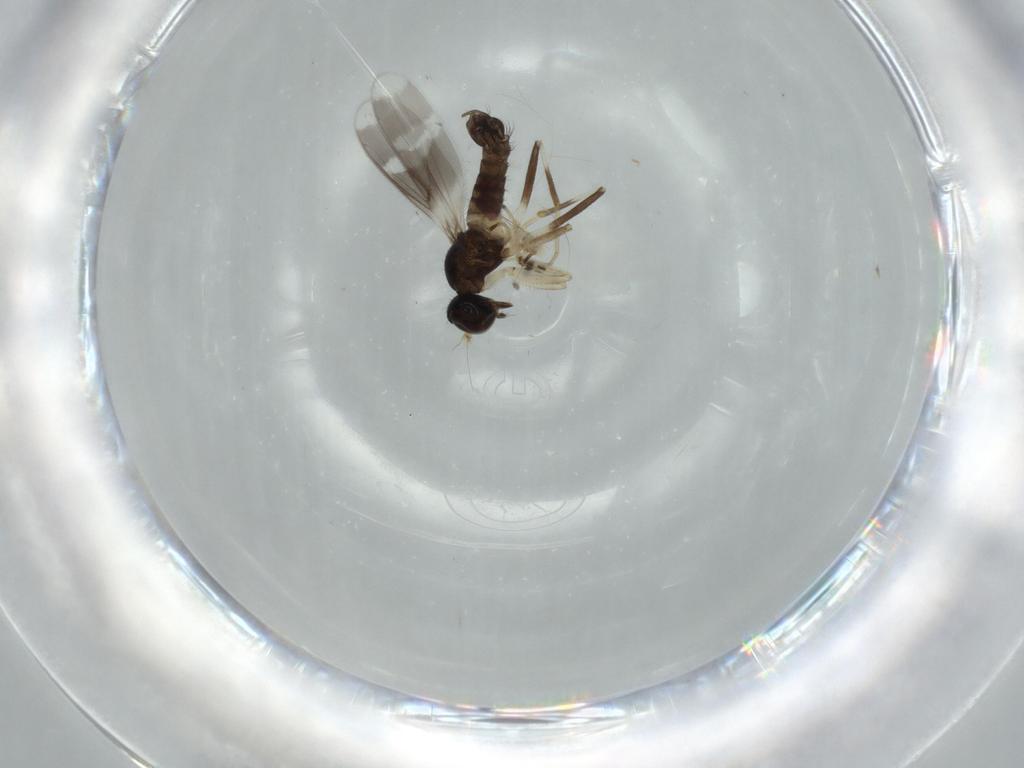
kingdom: Animalia
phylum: Arthropoda
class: Insecta
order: Diptera
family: Hybotidae
